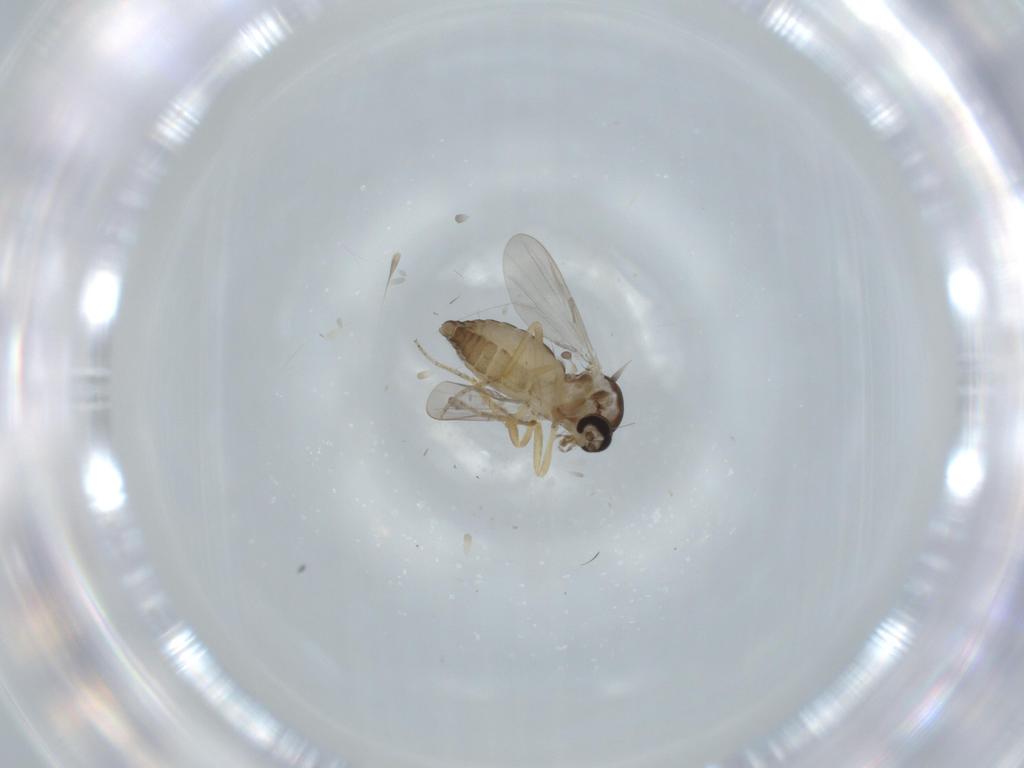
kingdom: Animalia
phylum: Arthropoda
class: Insecta
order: Diptera
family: Ceratopogonidae
